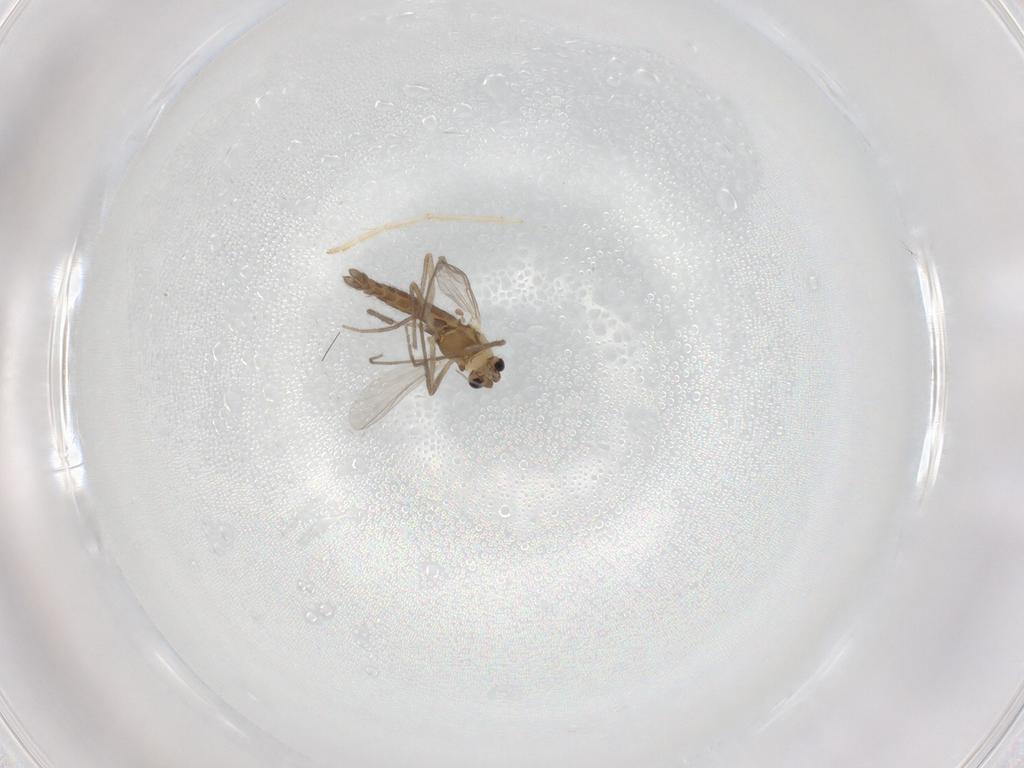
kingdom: Animalia
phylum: Arthropoda
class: Insecta
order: Diptera
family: Chironomidae
